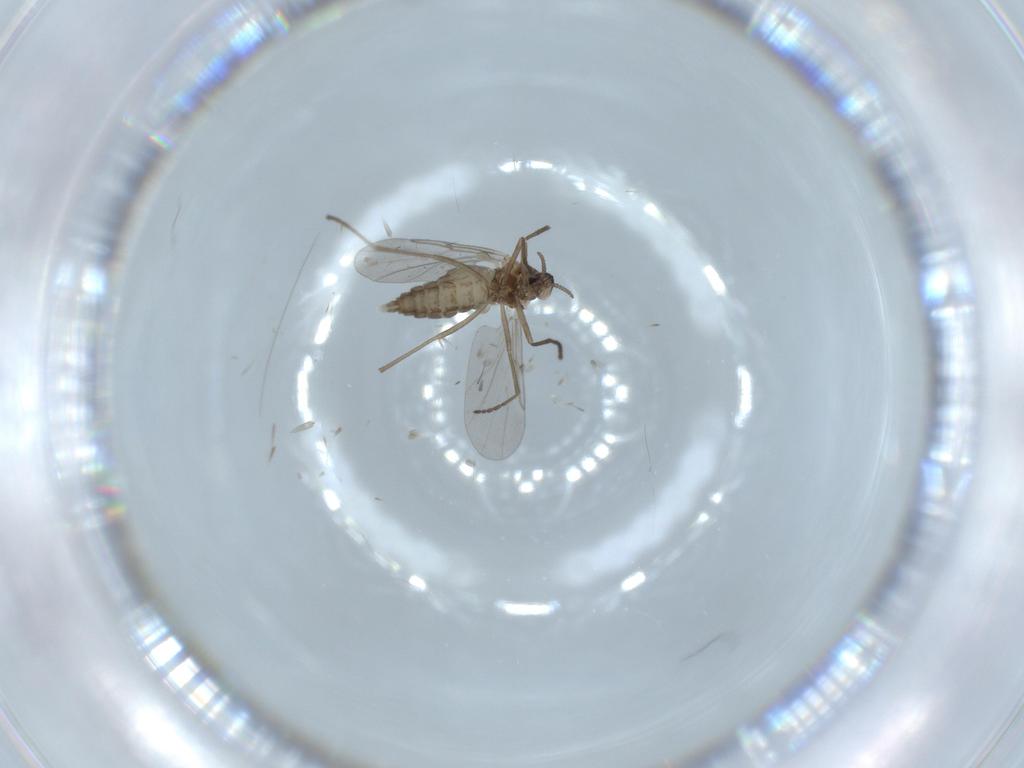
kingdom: Animalia
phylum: Arthropoda
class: Insecta
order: Diptera
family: Cecidomyiidae
